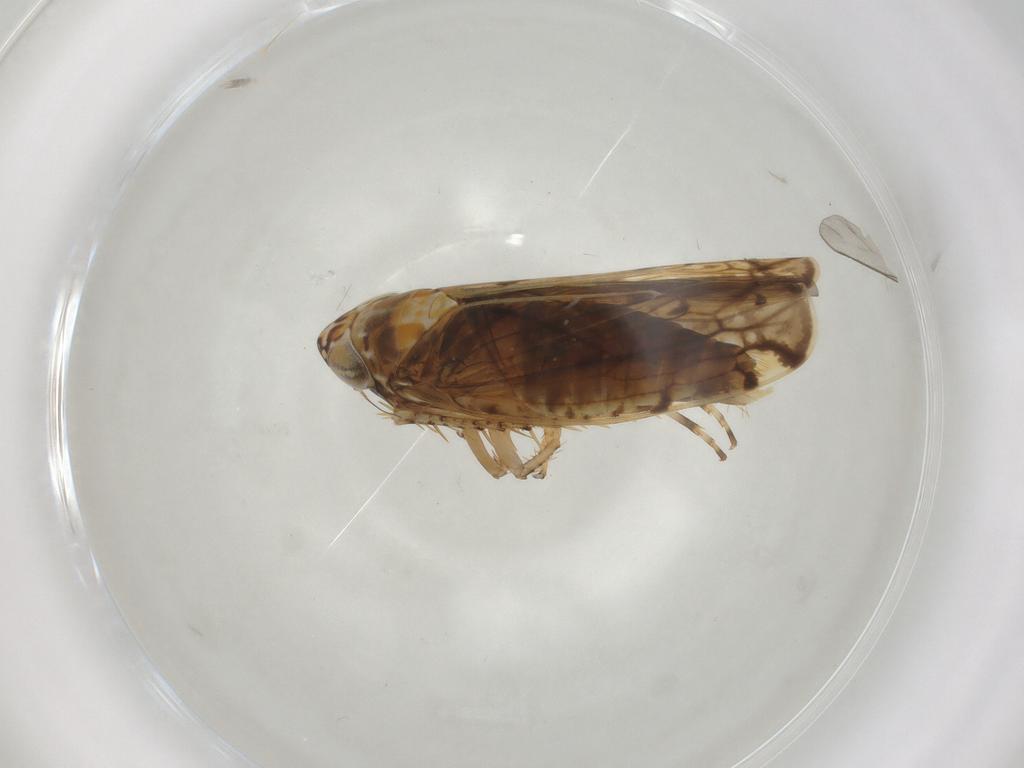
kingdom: Animalia
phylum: Arthropoda
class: Insecta
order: Hemiptera
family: Cicadellidae
